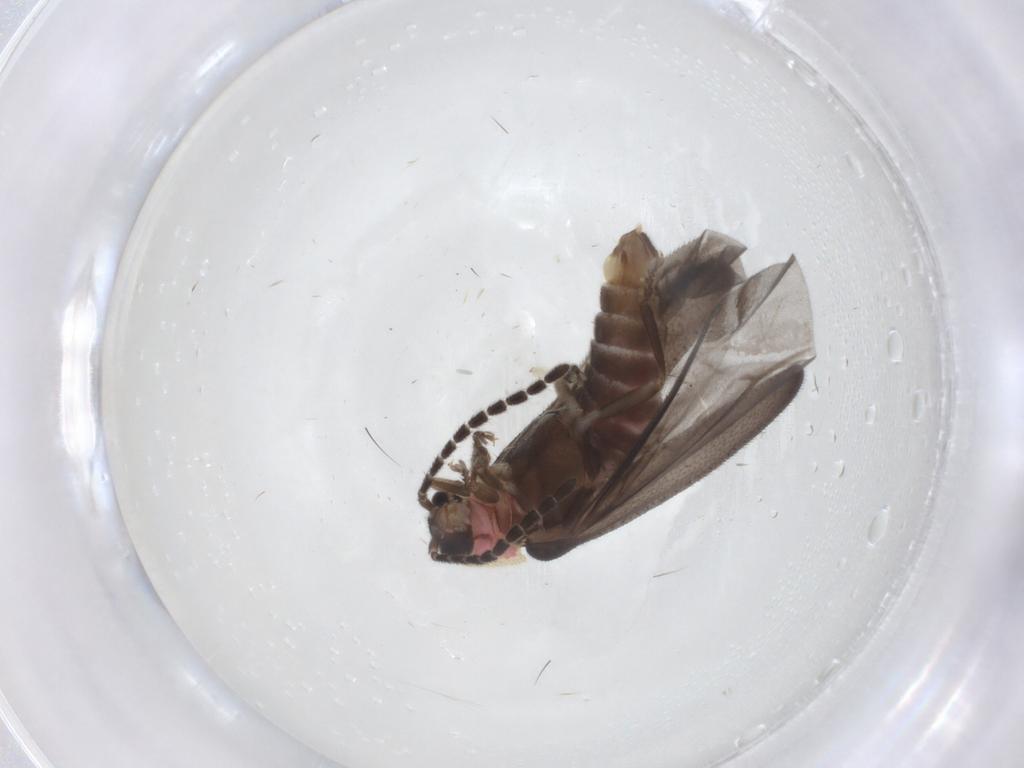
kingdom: Animalia
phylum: Arthropoda
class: Insecta
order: Coleoptera
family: Lampyridae
